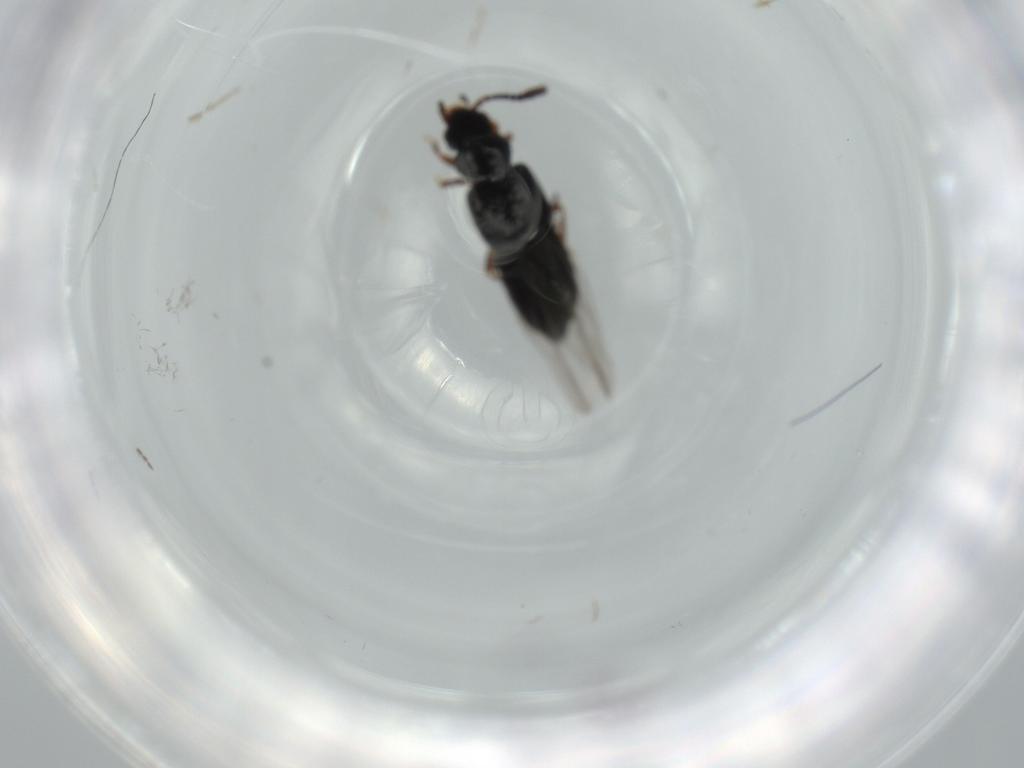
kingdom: Animalia
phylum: Arthropoda
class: Insecta
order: Coleoptera
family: Staphylinidae
